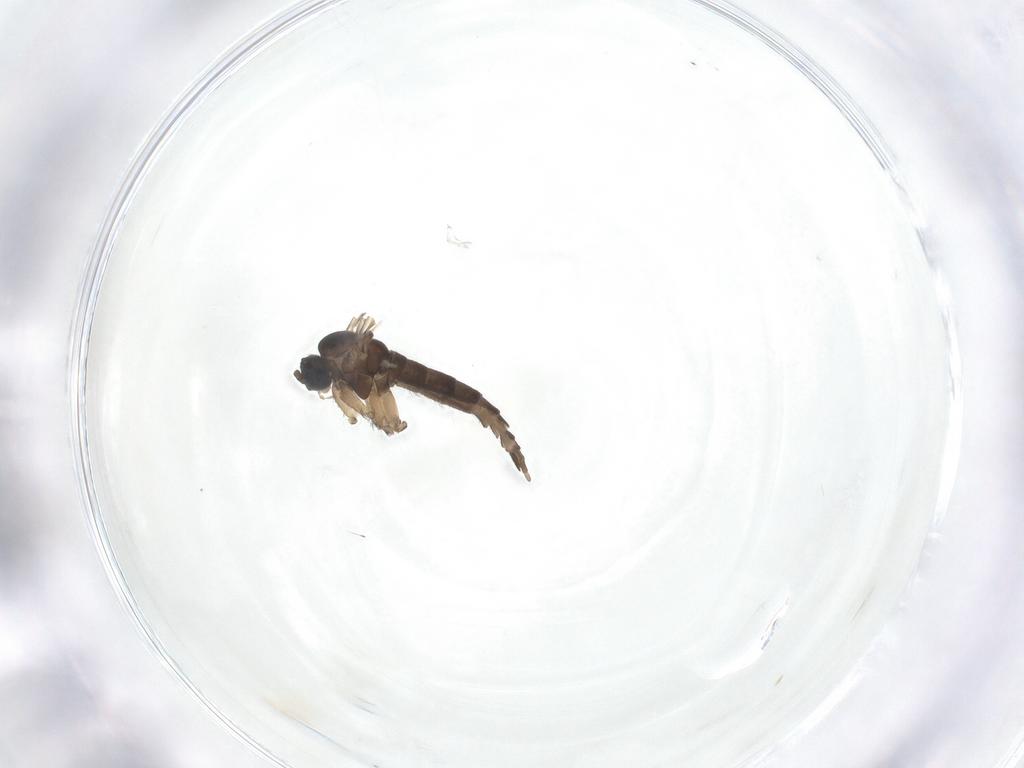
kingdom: Animalia
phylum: Arthropoda
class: Insecta
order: Diptera
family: Sciaridae
